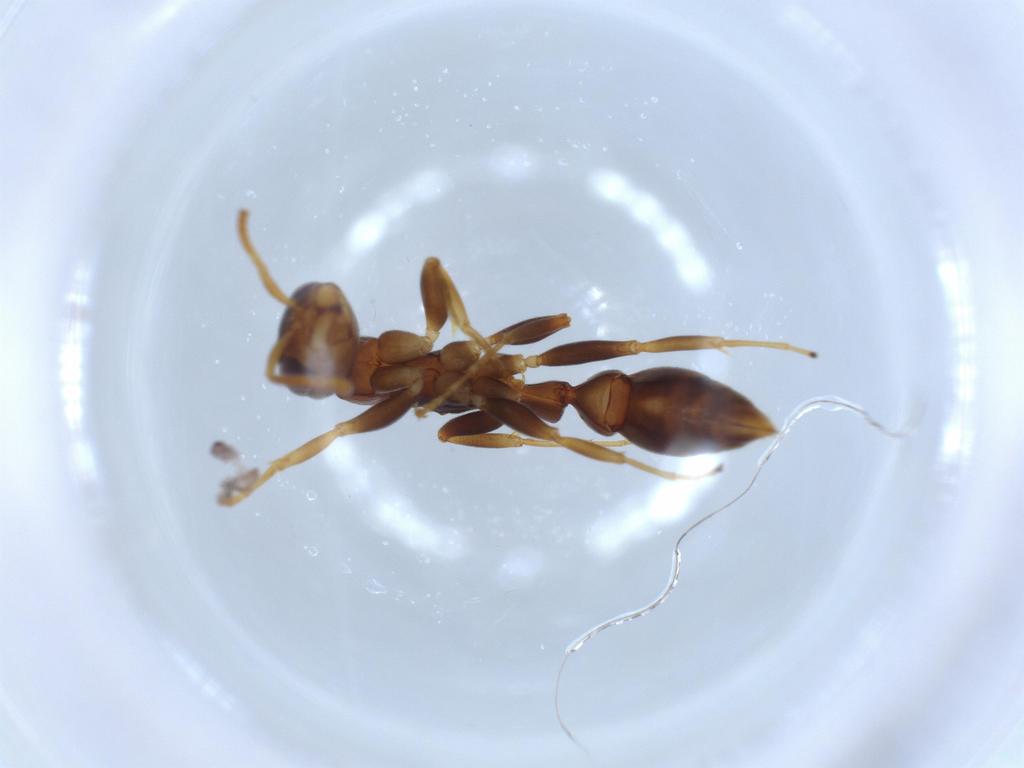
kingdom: Animalia
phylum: Arthropoda
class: Insecta
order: Hymenoptera
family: Formicidae
